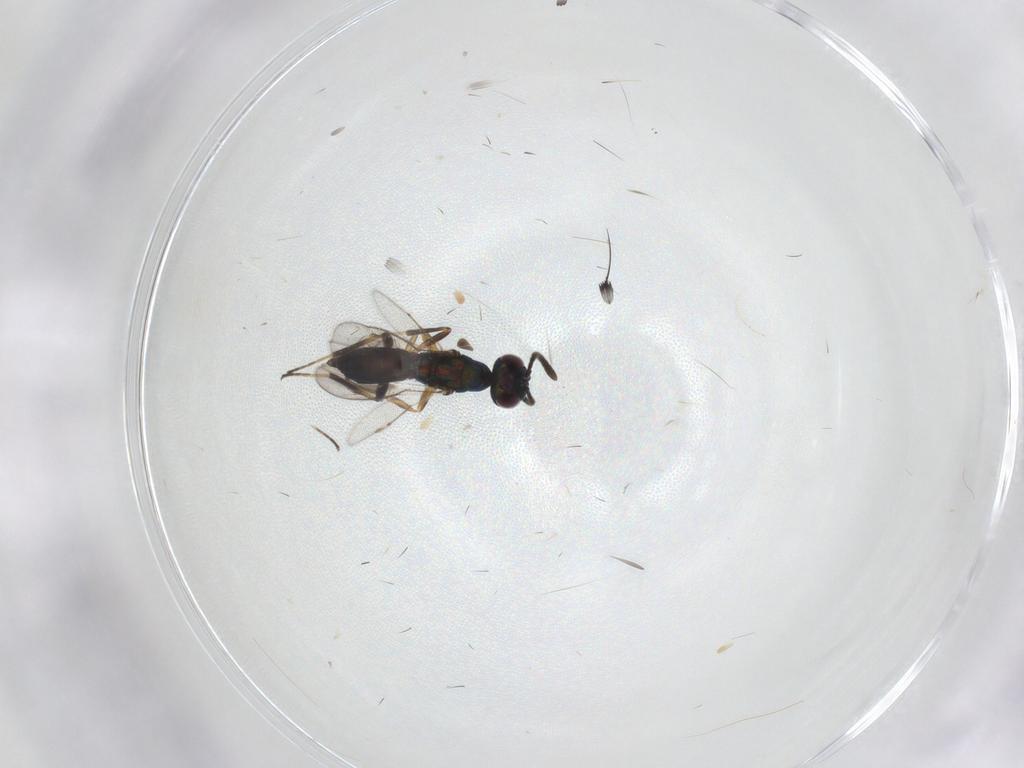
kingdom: Animalia
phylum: Arthropoda
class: Insecta
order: Hymenoptera
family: Eupelmidae
